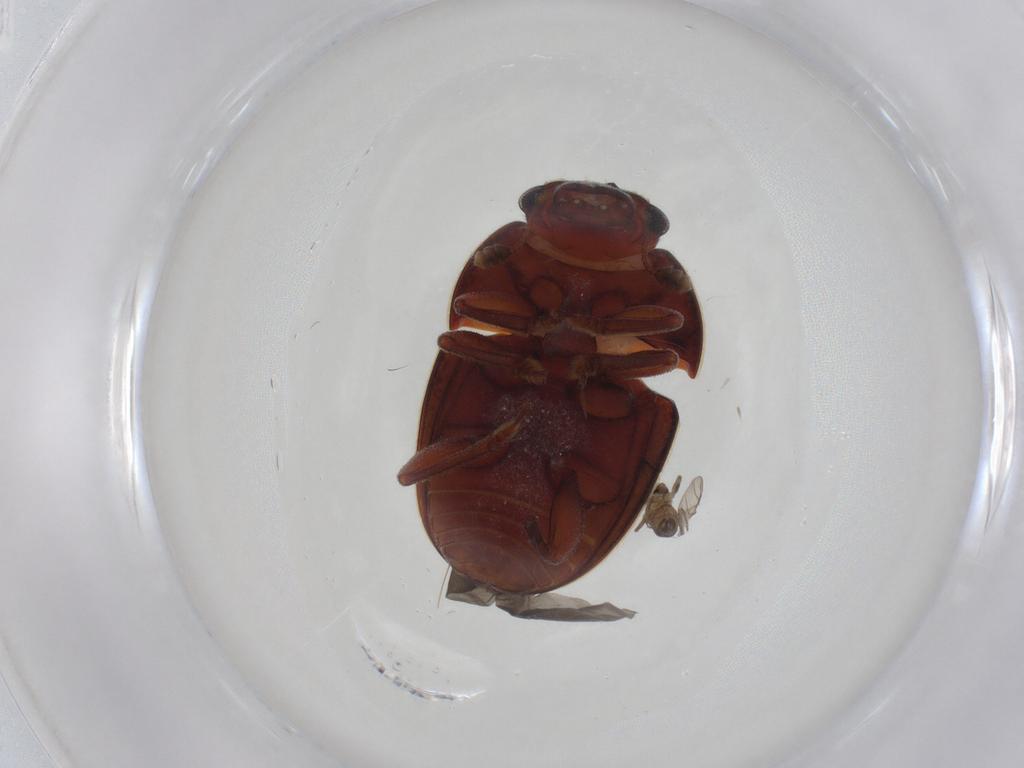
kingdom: Animalia
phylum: Arthropoda
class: Insecta
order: Coleoptera
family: Nitidulidae
